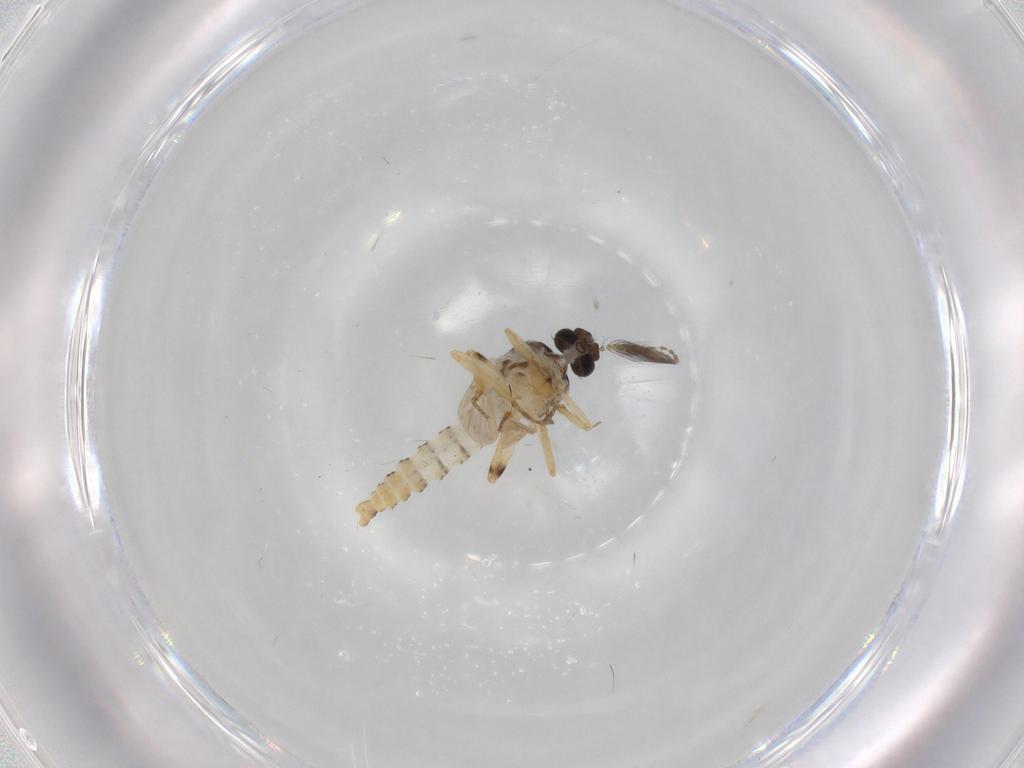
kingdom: Animalia
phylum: Arthropoda
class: Insecta
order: Diptera
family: Ceratopogonidae
